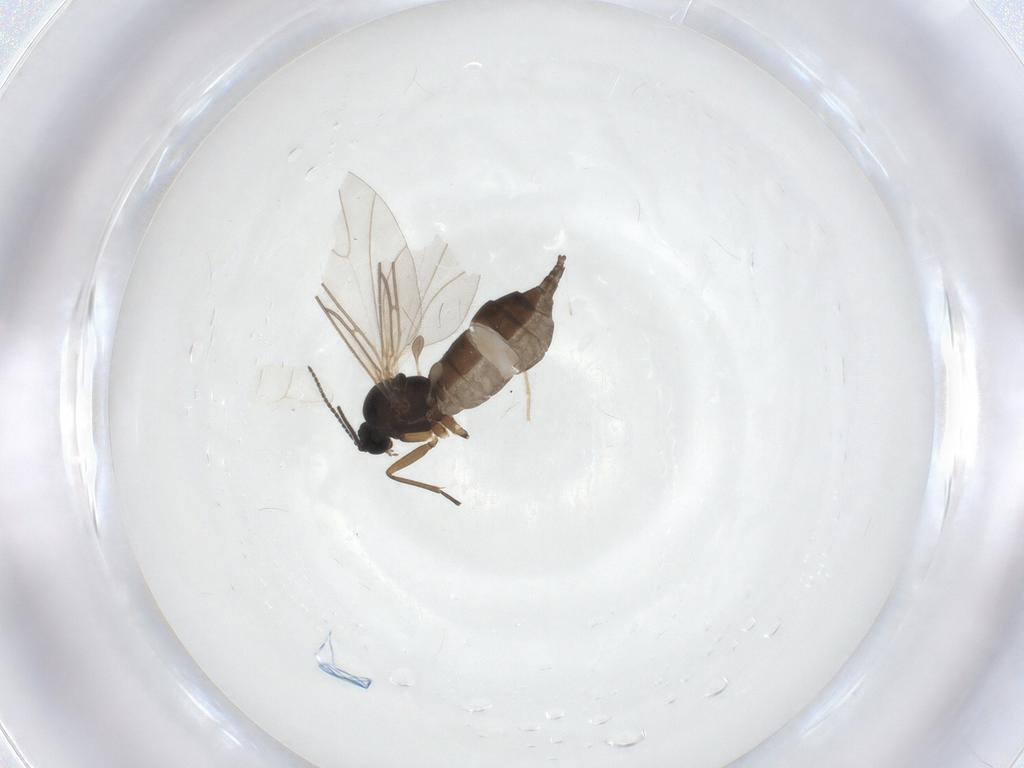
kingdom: Animalia
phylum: Arthropoda
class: Insecta
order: Diptera
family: Sciaridae
